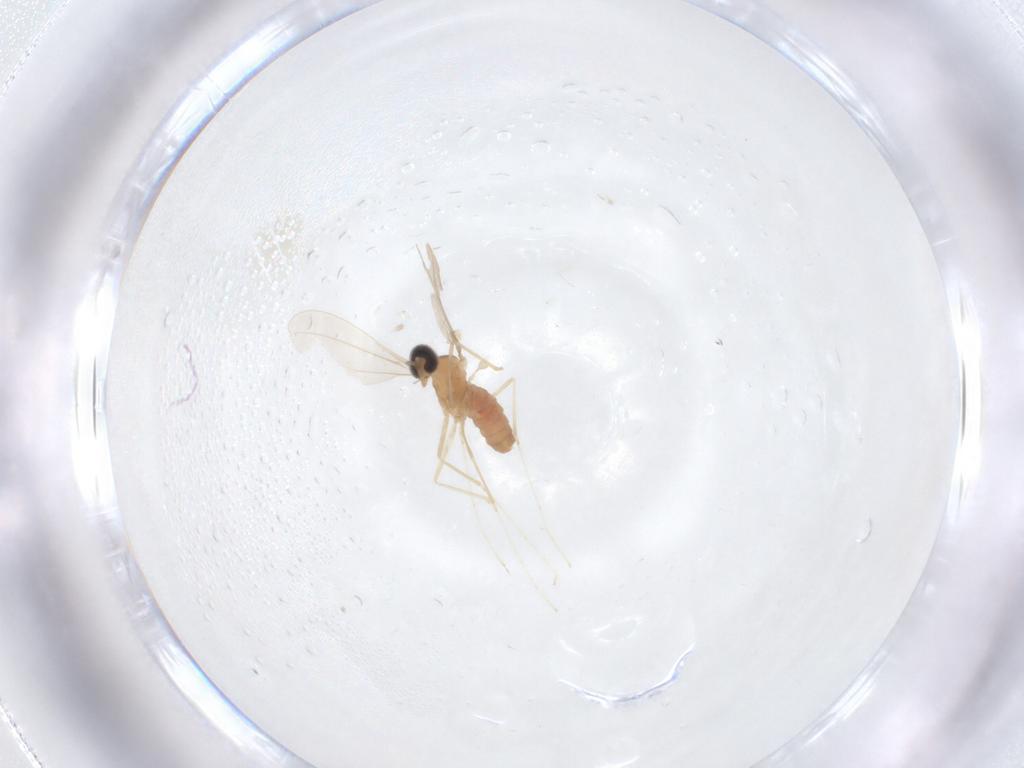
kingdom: Animalia
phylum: Arthropoda
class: Insecta
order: Diptera
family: Cecidomyiidae
